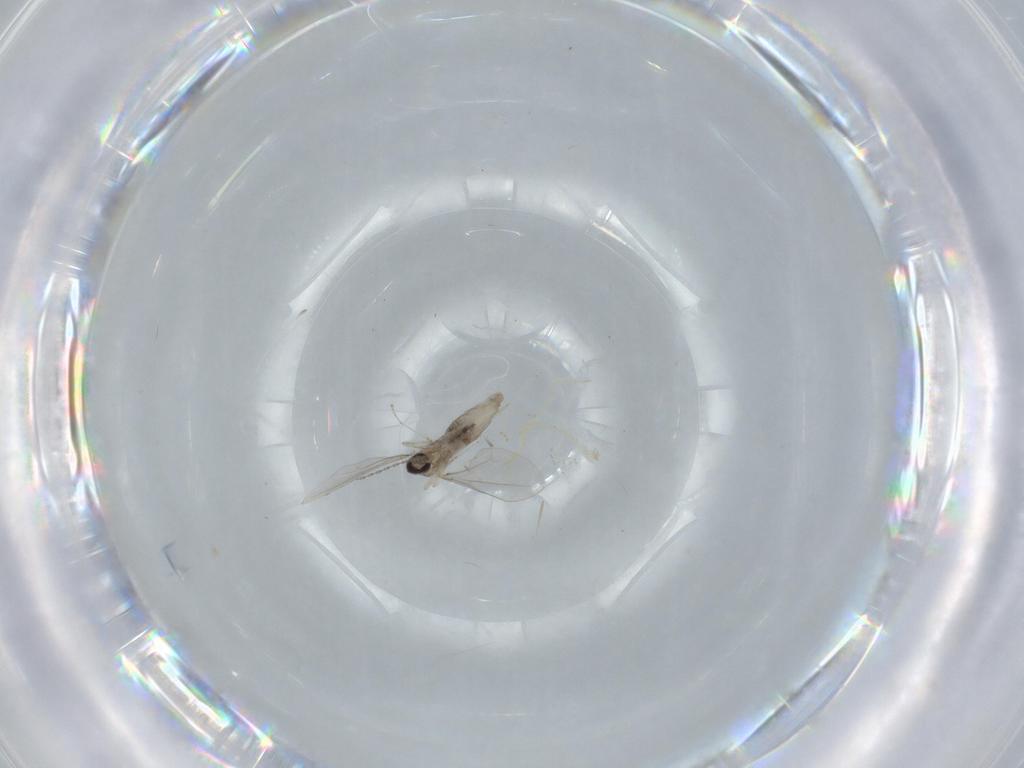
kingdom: Animalia
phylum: Arthropoda
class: Insecta
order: Diptera
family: Cecidomyiidae
